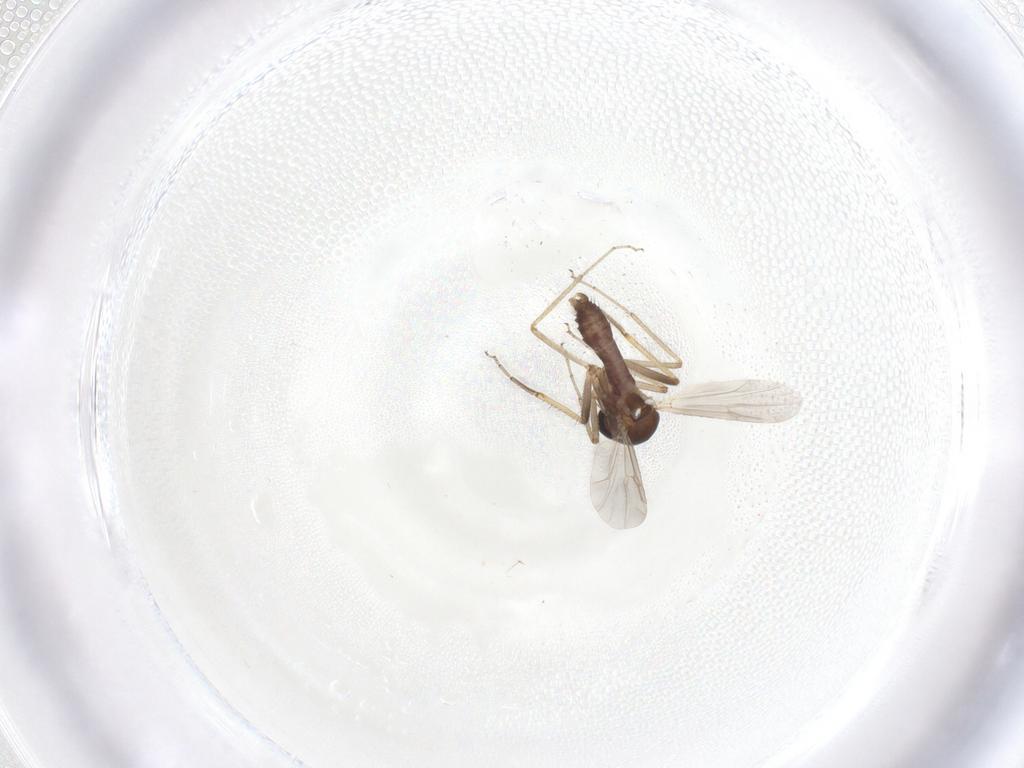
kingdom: Animalia
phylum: Arthropoda
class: Insecta
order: Diptera
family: Ceratopogonidae
